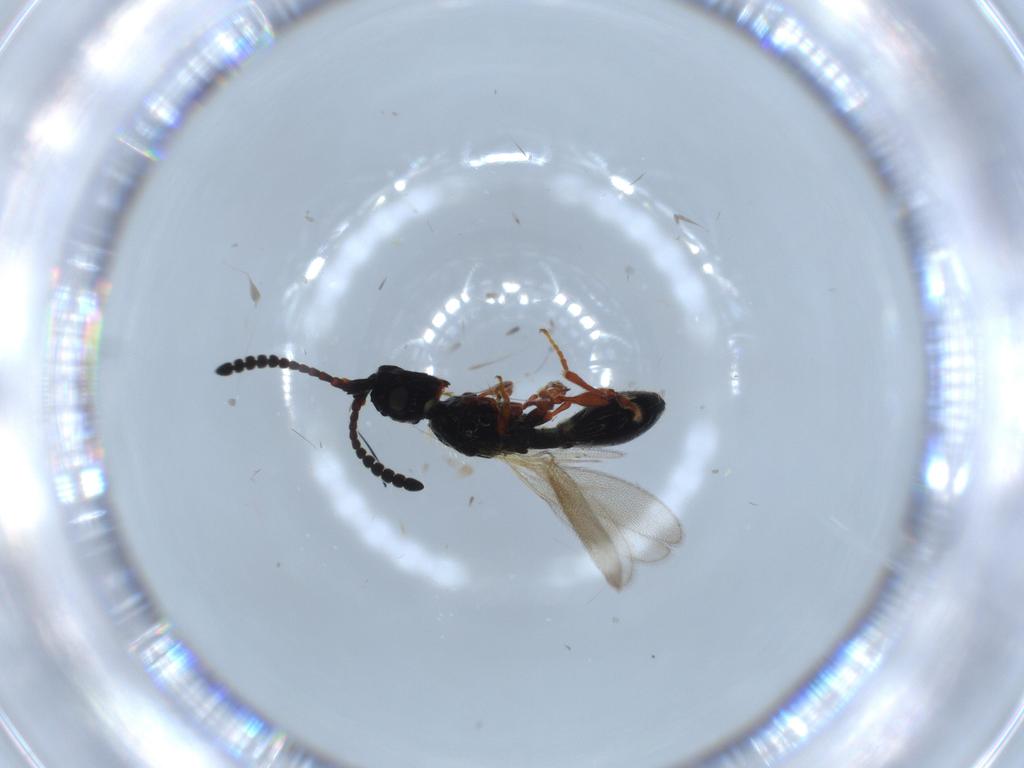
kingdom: Animalia
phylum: Arthropoda
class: Insecta
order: Hymenoptera
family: Diapriidae
